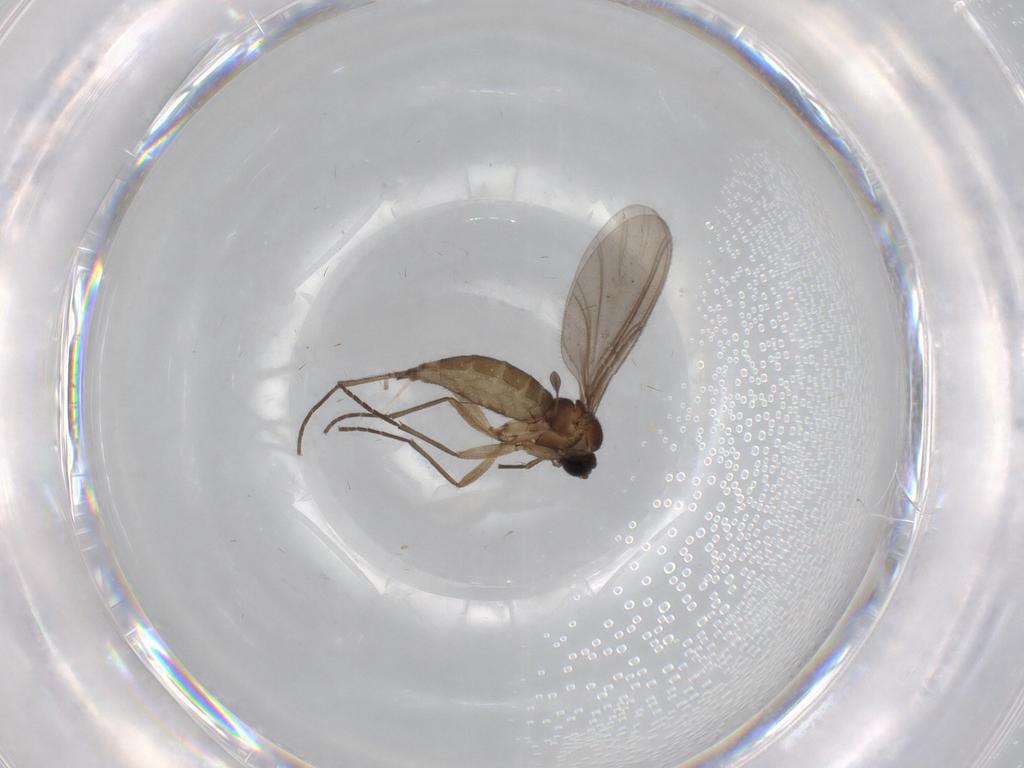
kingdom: Animalia
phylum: Arthropoda
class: Insecta
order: Diptera
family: Sciaridae
